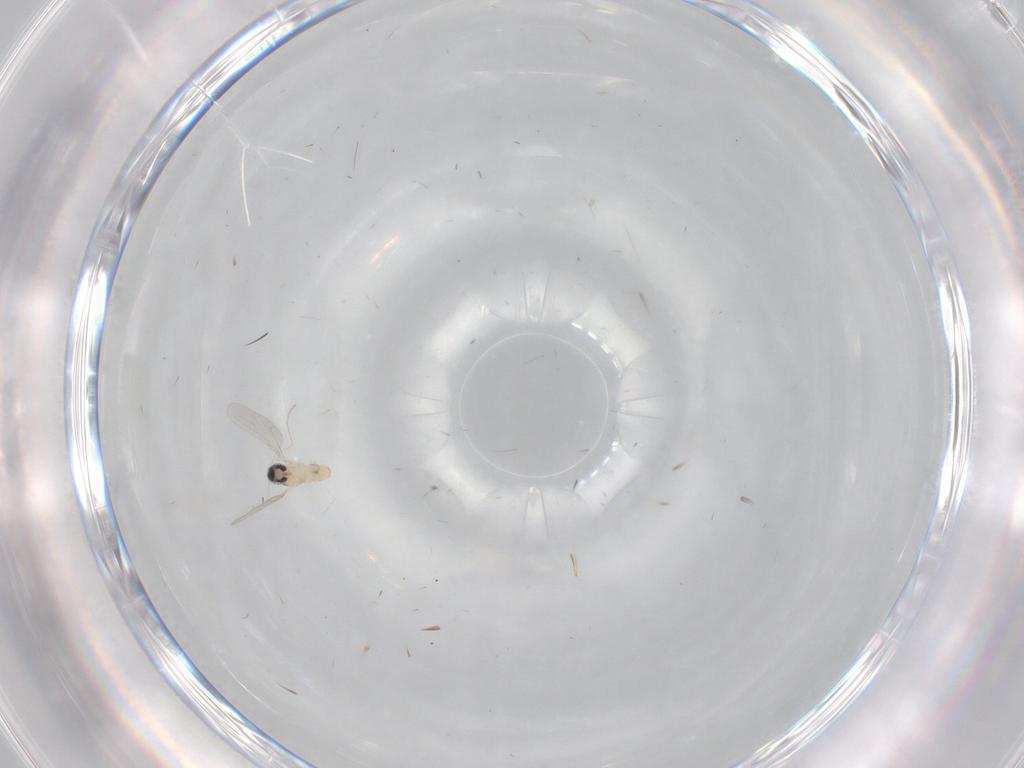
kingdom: Animalia
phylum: Arthropoda
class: Insecta
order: Diptera
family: Cecidomyiidae
